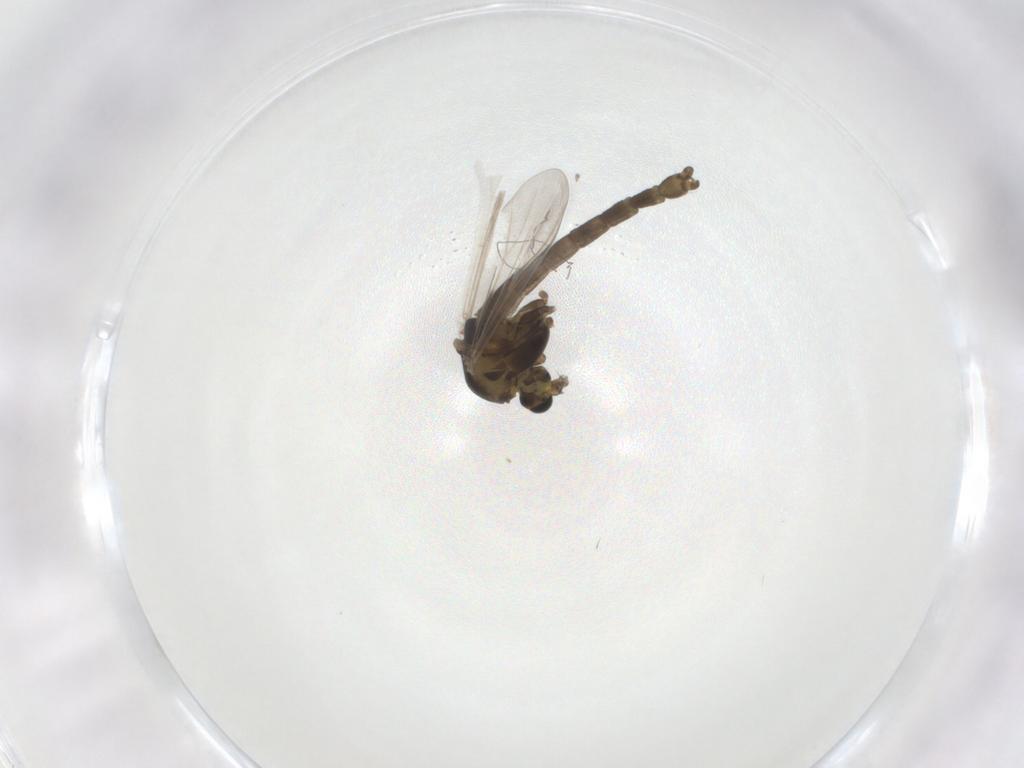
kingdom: Animalia
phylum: Arthropoda
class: Insecta
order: Diptera
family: Chironomidae
